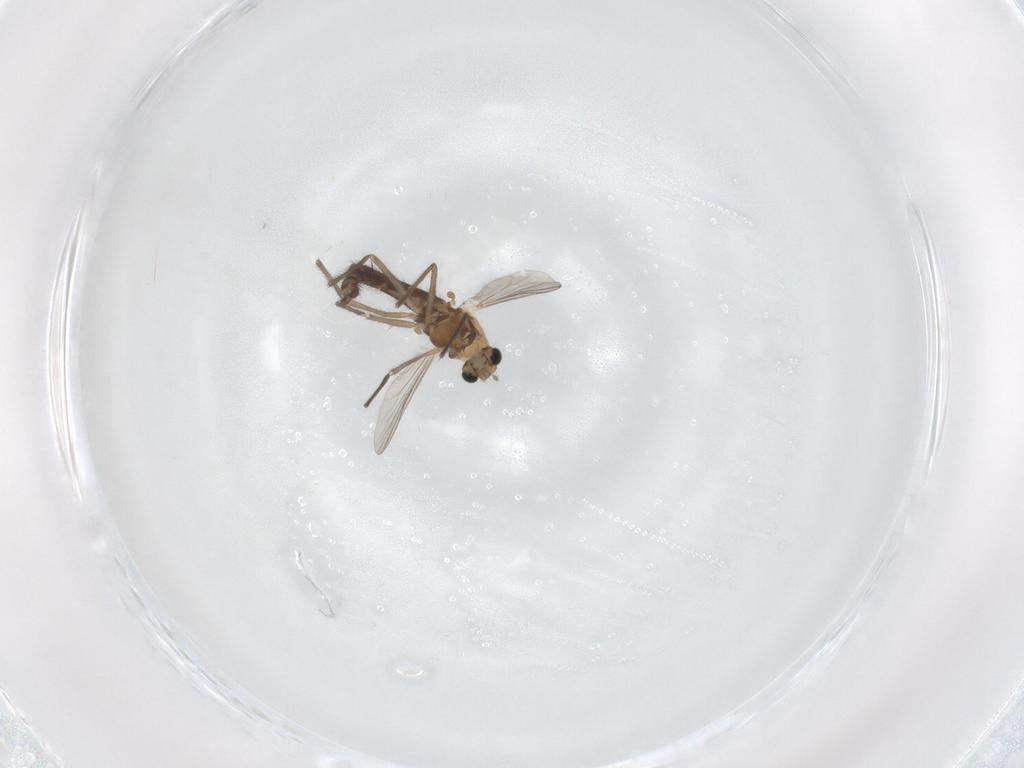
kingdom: Animalia
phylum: Arthropoda
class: Insecta
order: Diptera
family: Chironomidae
